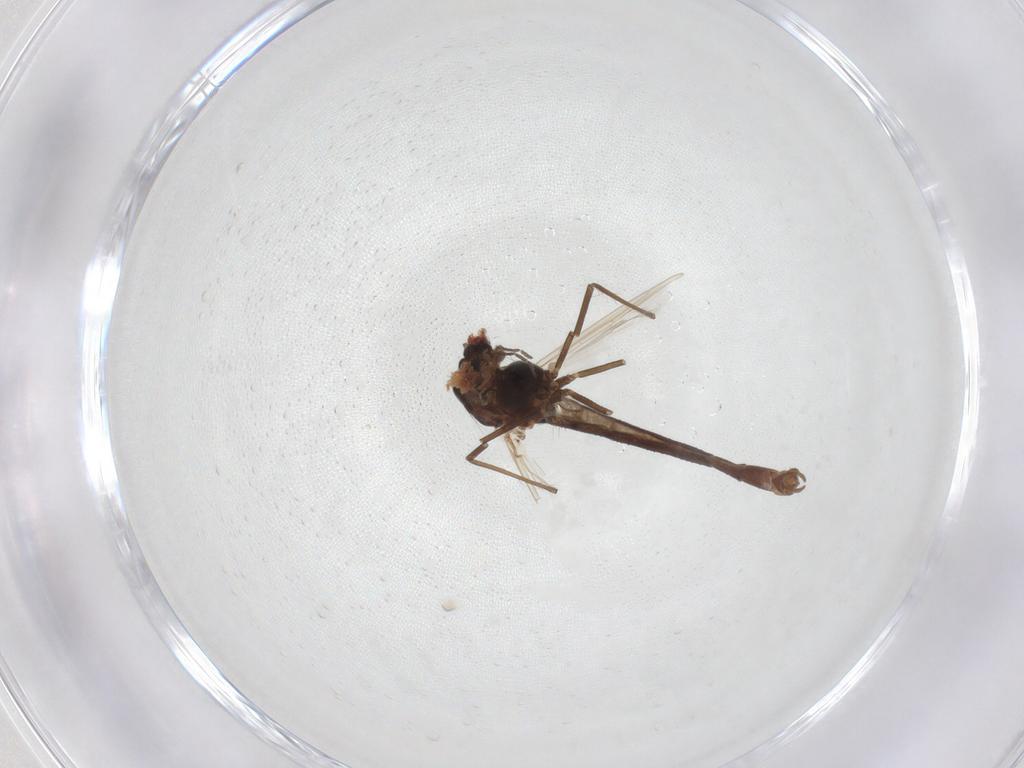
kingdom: Animalia
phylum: Arthropoda
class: Insecta
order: Diptera
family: Chironomidae
